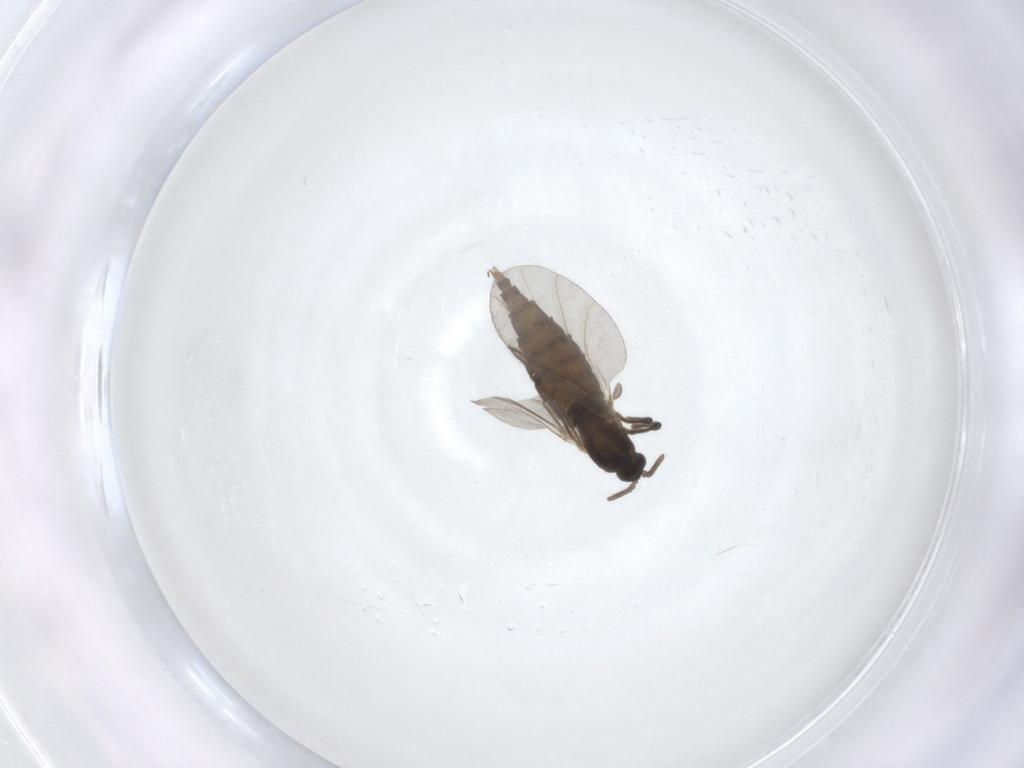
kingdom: Animalia
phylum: Arthropoda
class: Insecta
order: Diptera
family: Cecidomyiidae
